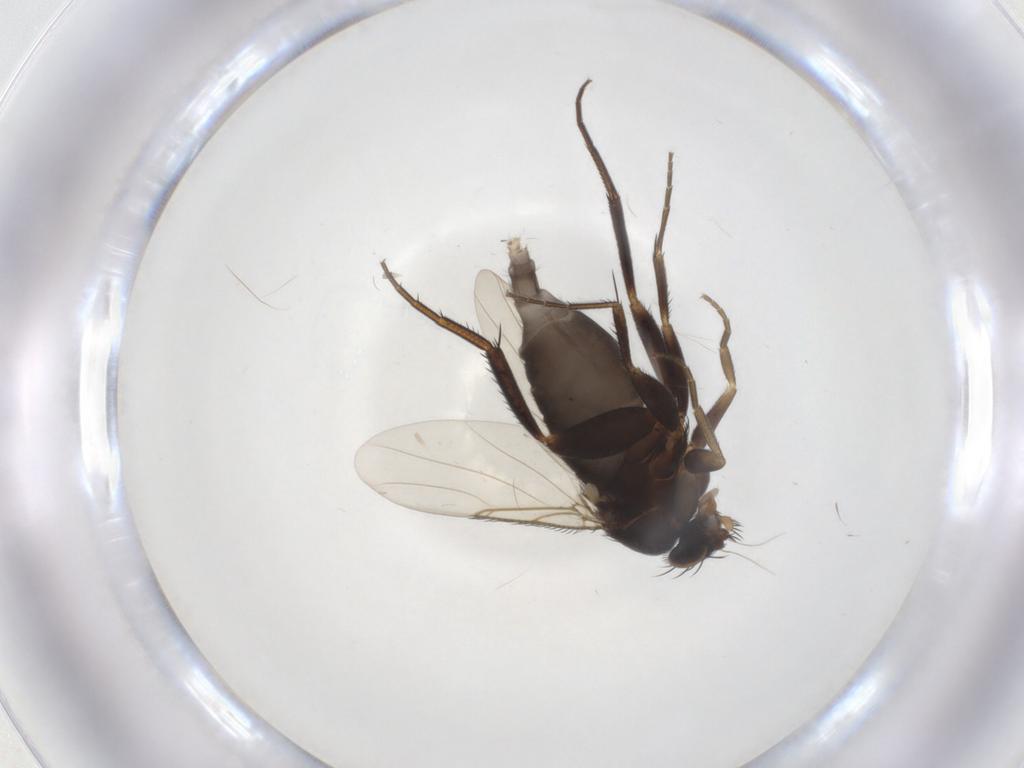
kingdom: Animalia
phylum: Arthropoda
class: Insecta
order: Diptera
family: Phoridae
